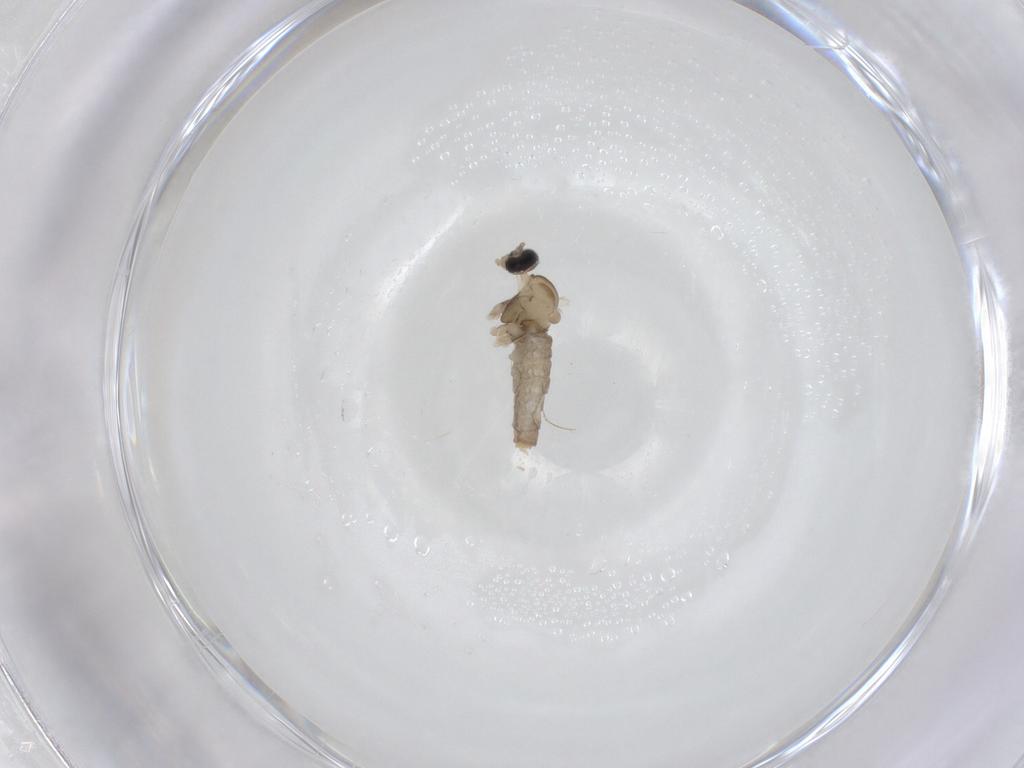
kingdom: Animalia
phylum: Arthropoda
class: Insecta
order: Diptera
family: Cecidomyiidae
